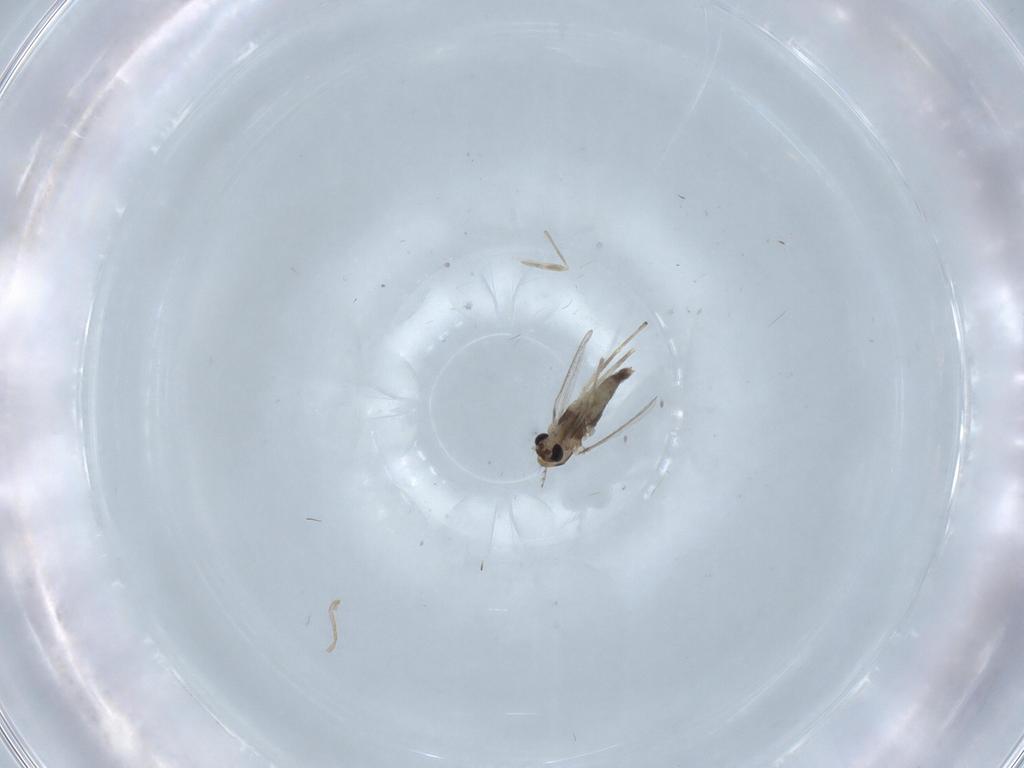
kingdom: Animalia
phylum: Arthropoda
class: Insecta
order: Diptera
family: Chironomidae
